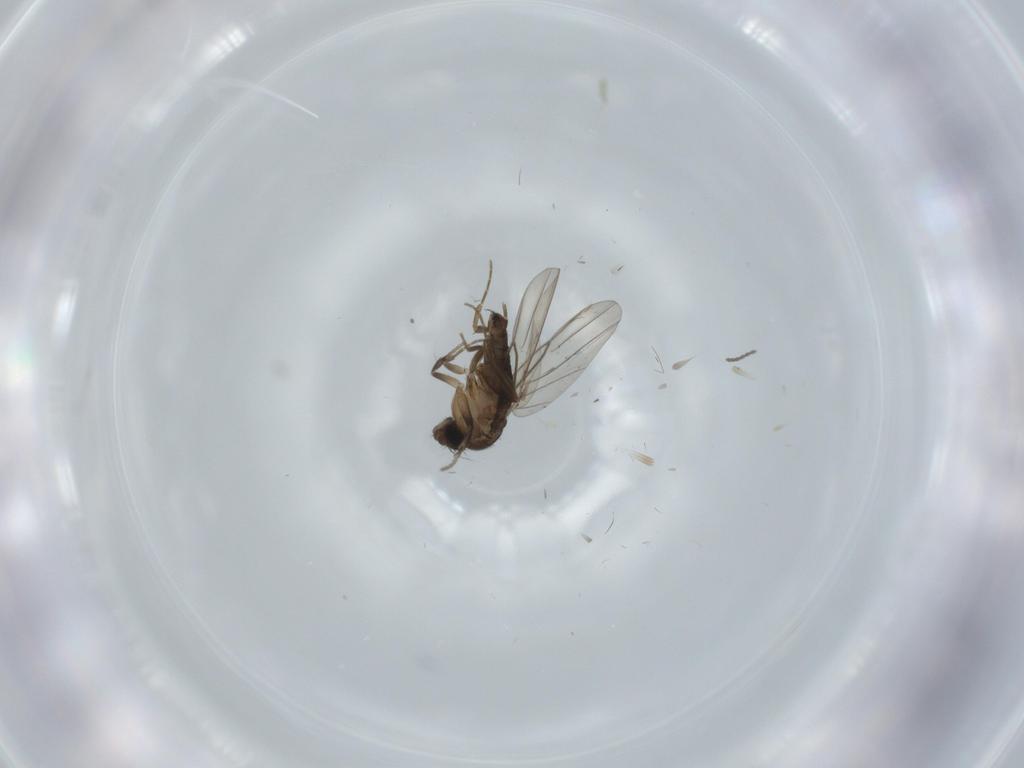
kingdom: Animalia
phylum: Arthropoda
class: Insecta
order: Diptera
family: Phoridae
